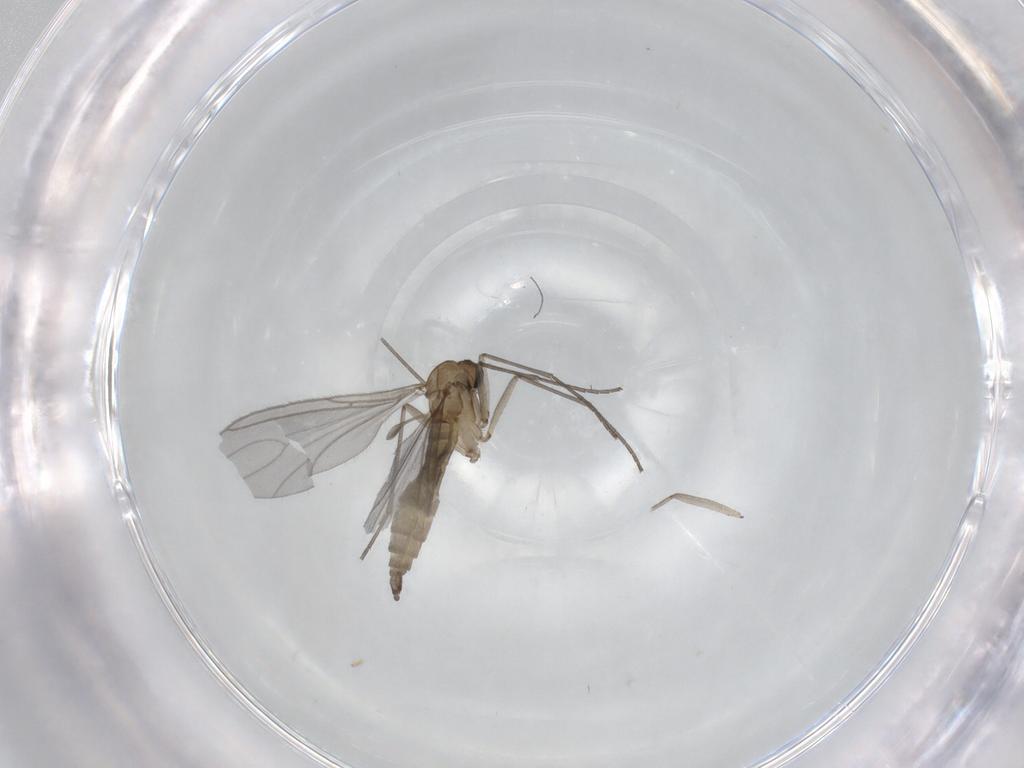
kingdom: Animalia
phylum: Arthropoda
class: Insecta
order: Diptera
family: Sciaridae
